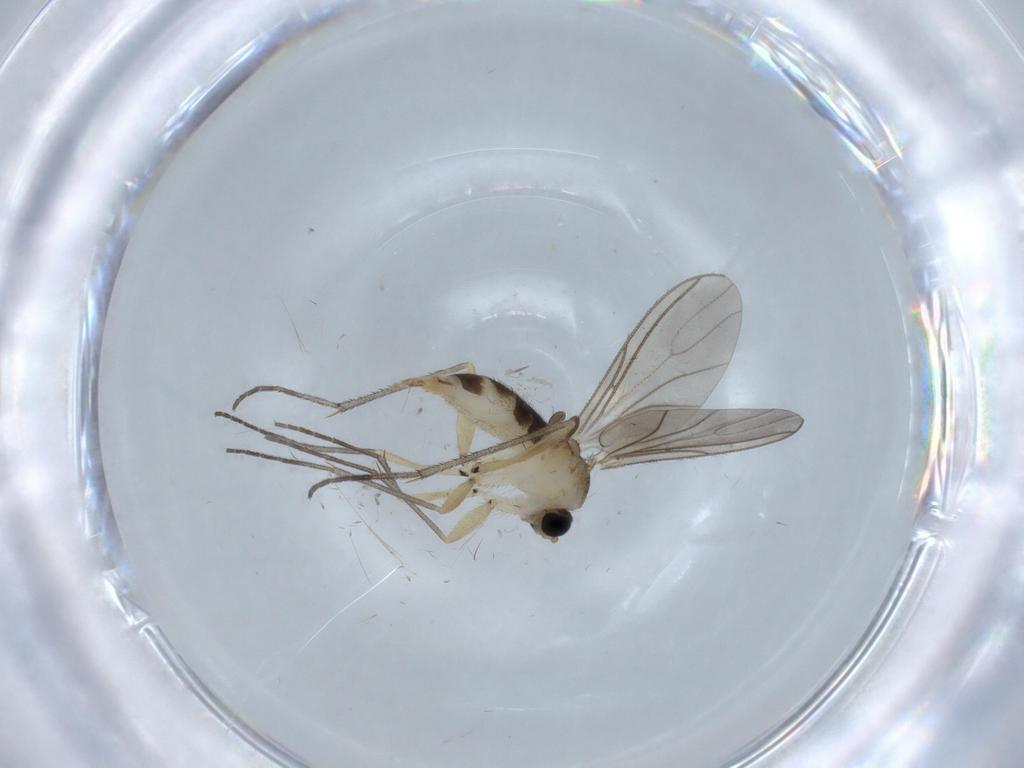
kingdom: Animalia
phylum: Arthropoda
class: Insecta
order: Diptera
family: Sciaridae
